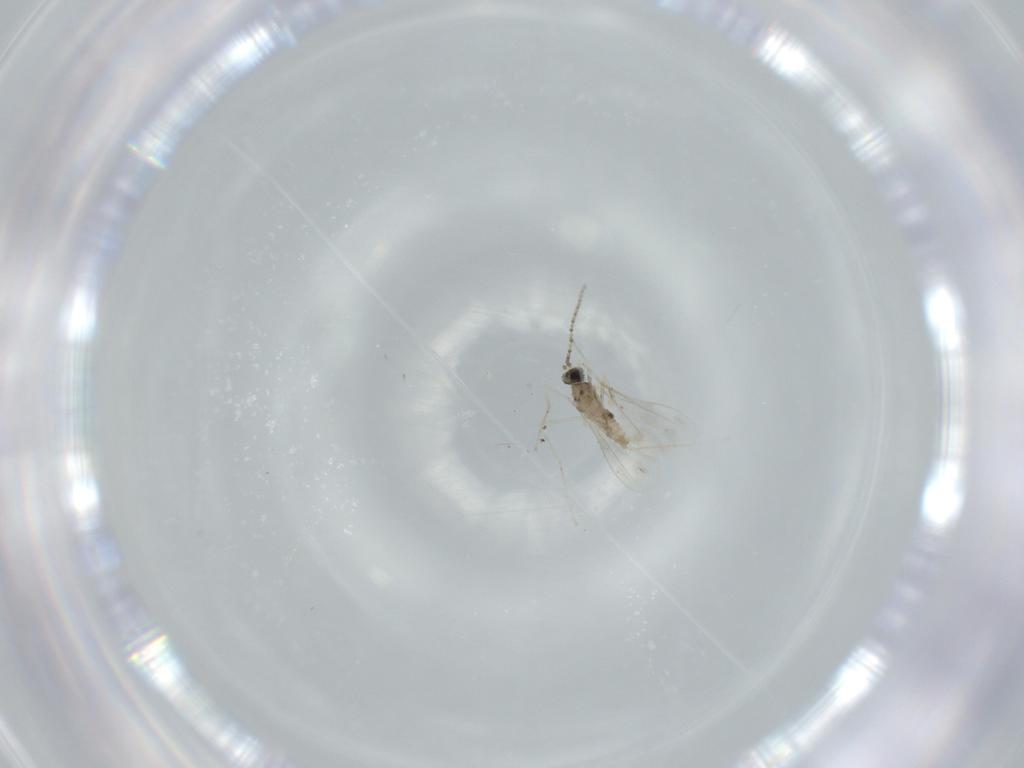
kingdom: Animalia
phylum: Arthropoda
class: Insecta
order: Diptera
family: Cecidomyiidae
